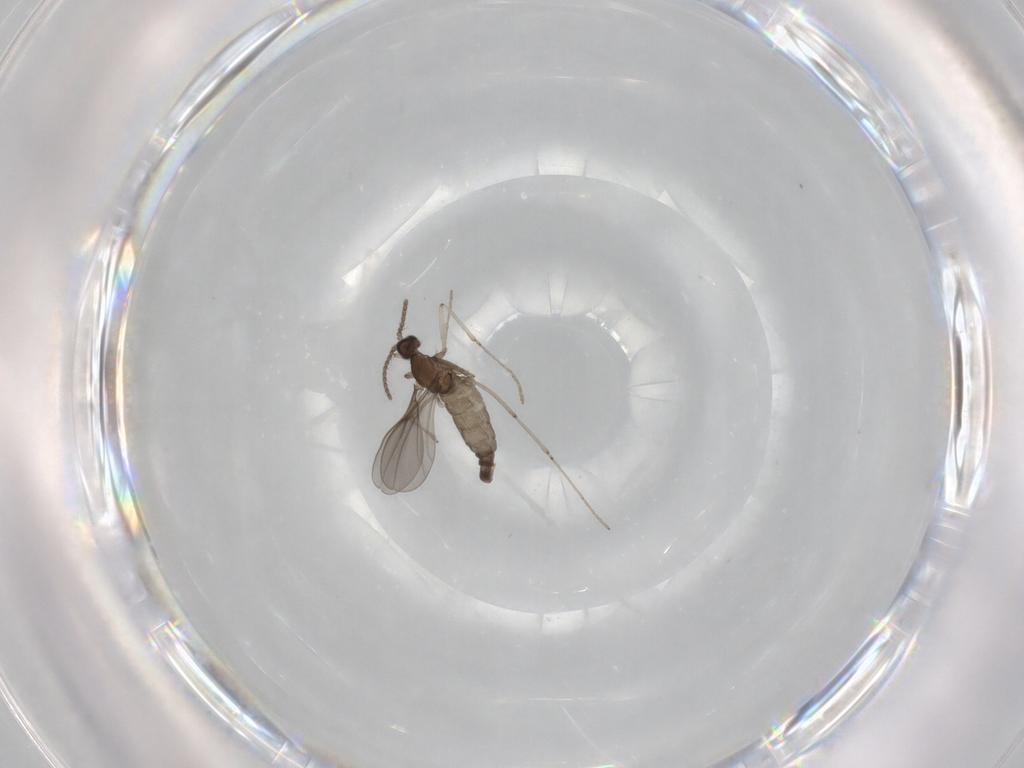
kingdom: Animalia
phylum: Arthropoda
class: Insecta
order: Diptera
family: Cecidomyiidae
